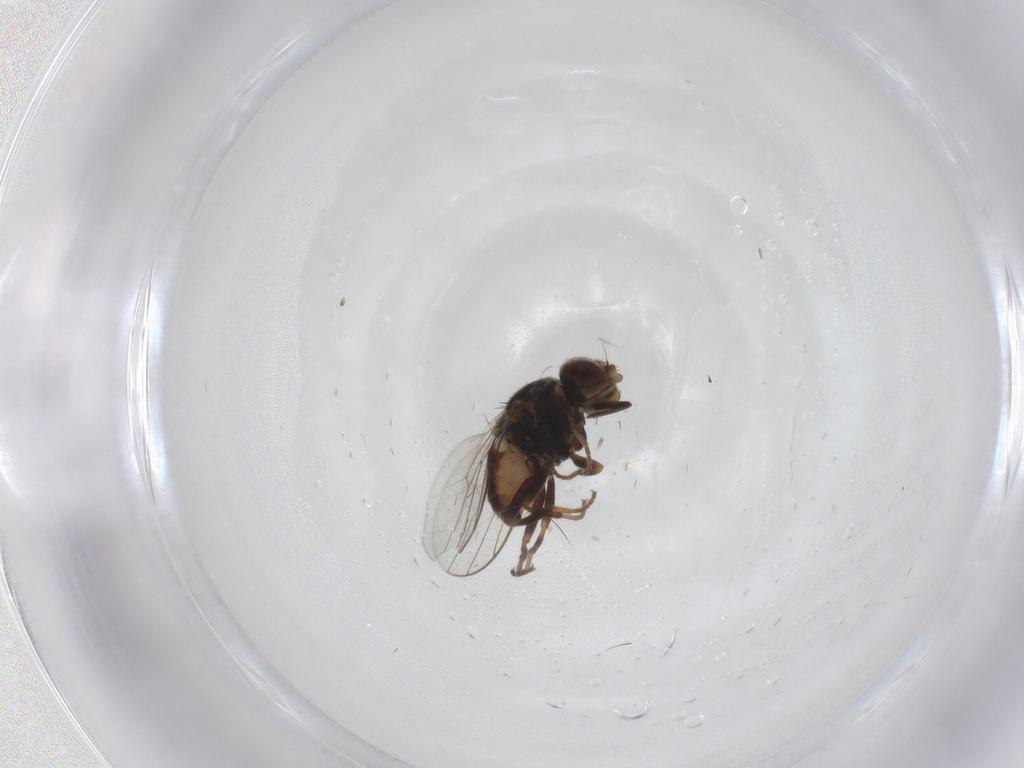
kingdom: Animalia
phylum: Arthropoda
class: Insecta
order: Diptera
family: Chloropidae
